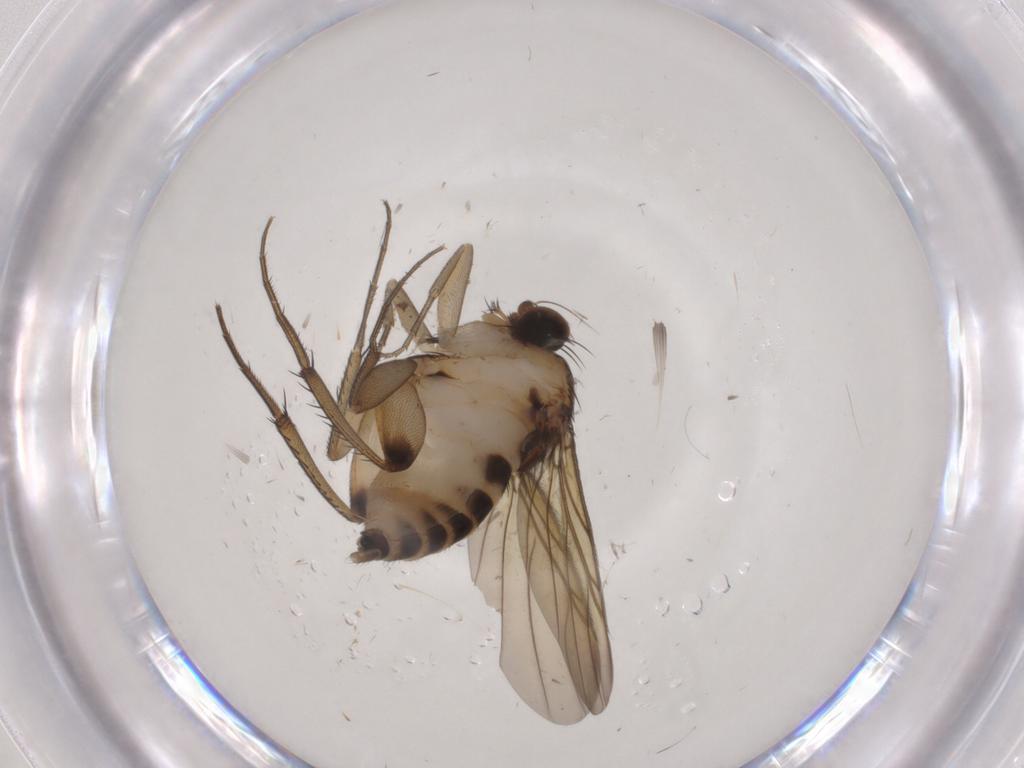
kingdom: Animalia
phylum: Arthropoda
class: Insecta
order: Diptera
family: Phoridae
